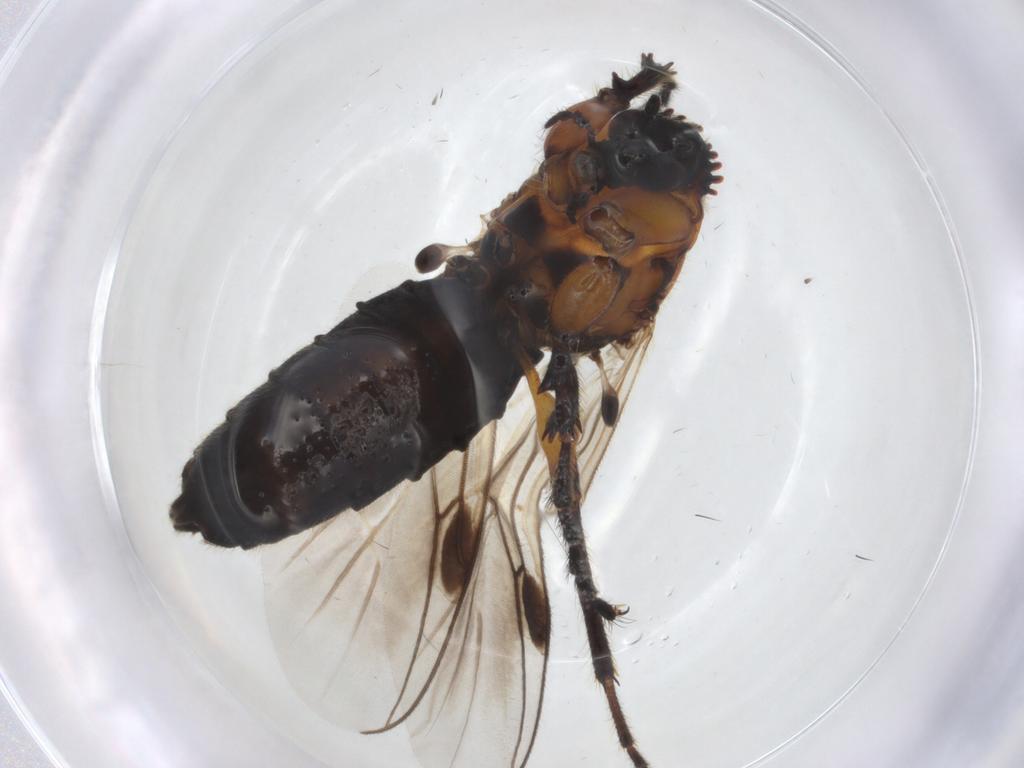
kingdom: Animalia
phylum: Arthropoda
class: Insecta
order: Diptera
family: Bibionidae
